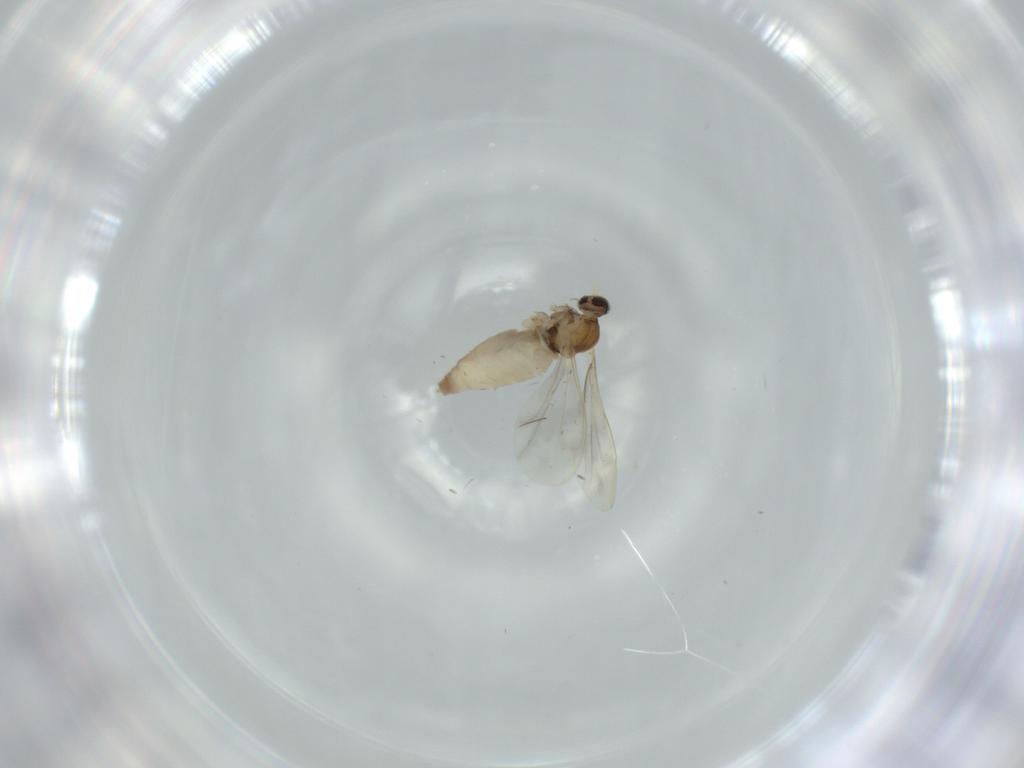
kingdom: Animalia
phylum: Arthropoda
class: Insecta
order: Diptera
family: Cecidomyiidae
